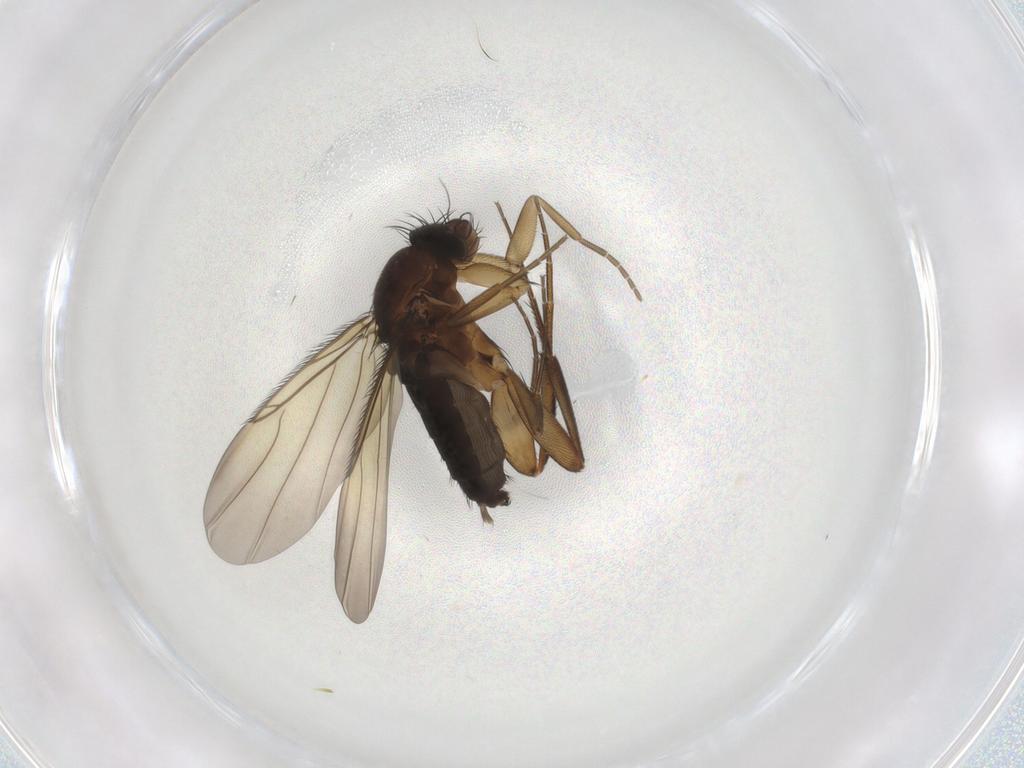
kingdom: Animalia
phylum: Arthropoda
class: Insecta
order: Diptera
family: Phoridae
